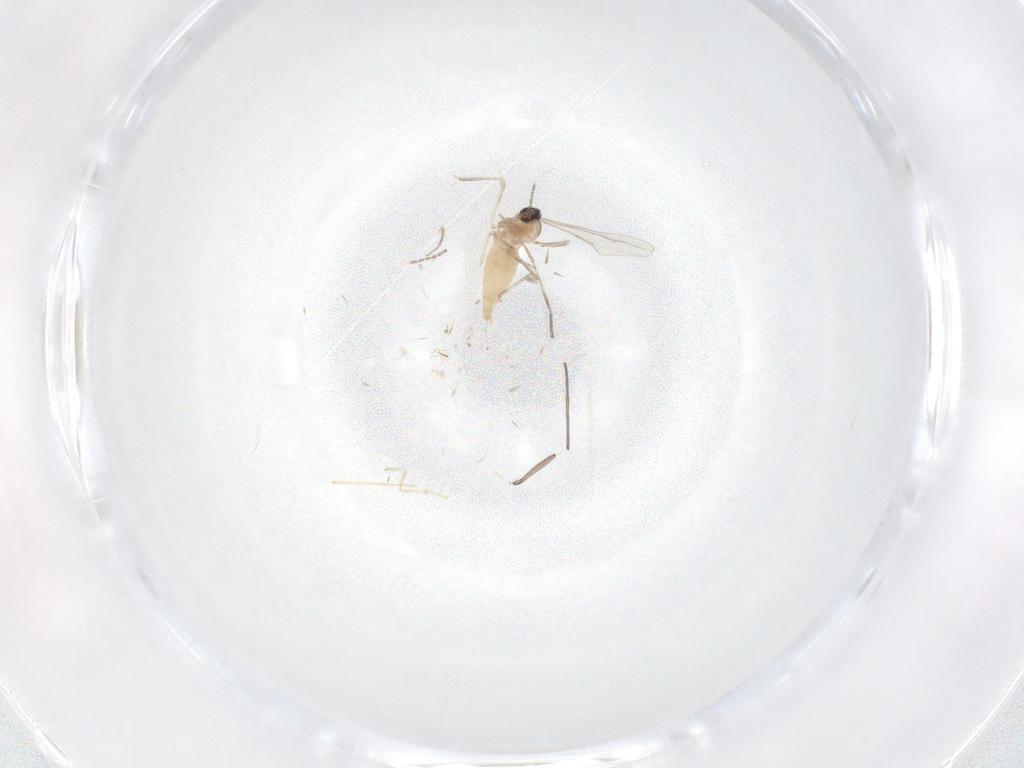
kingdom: Animalia
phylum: Arthropoda
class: Insecta
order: Diptera
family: Cecidomyiidae
